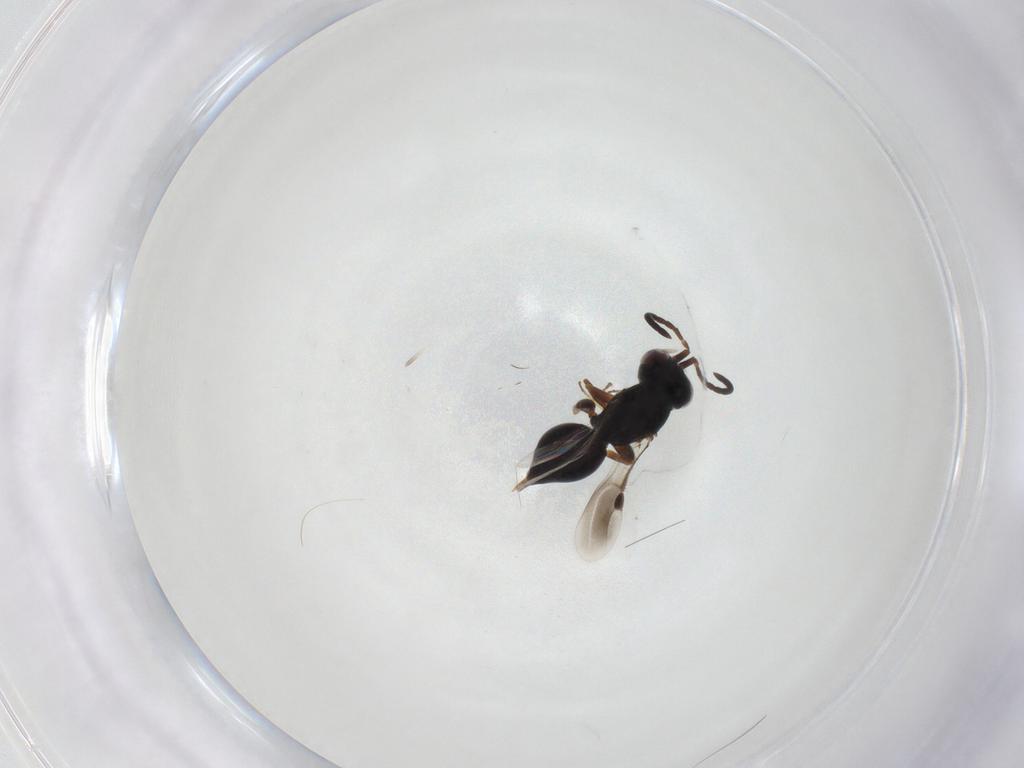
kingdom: Animalia
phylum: Arthropoda
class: Insecta
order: Hymenoptera
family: Megaspilidae
